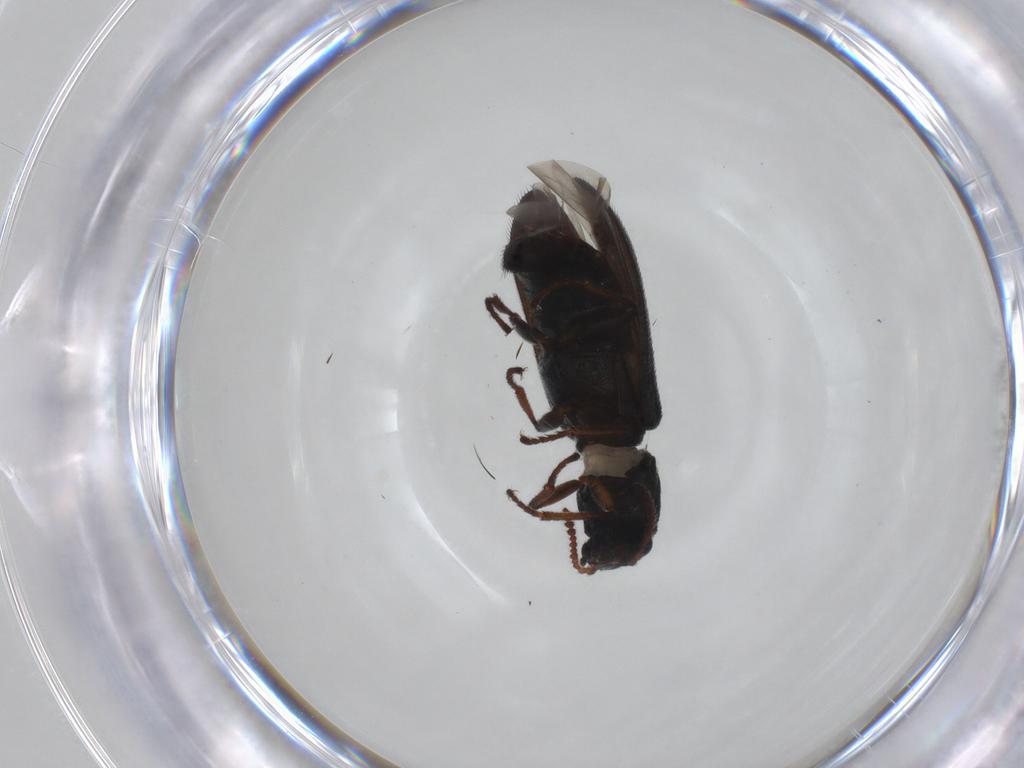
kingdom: Animalia
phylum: Arthropoda
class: Insecta
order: Coleoptera
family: Melyridae
